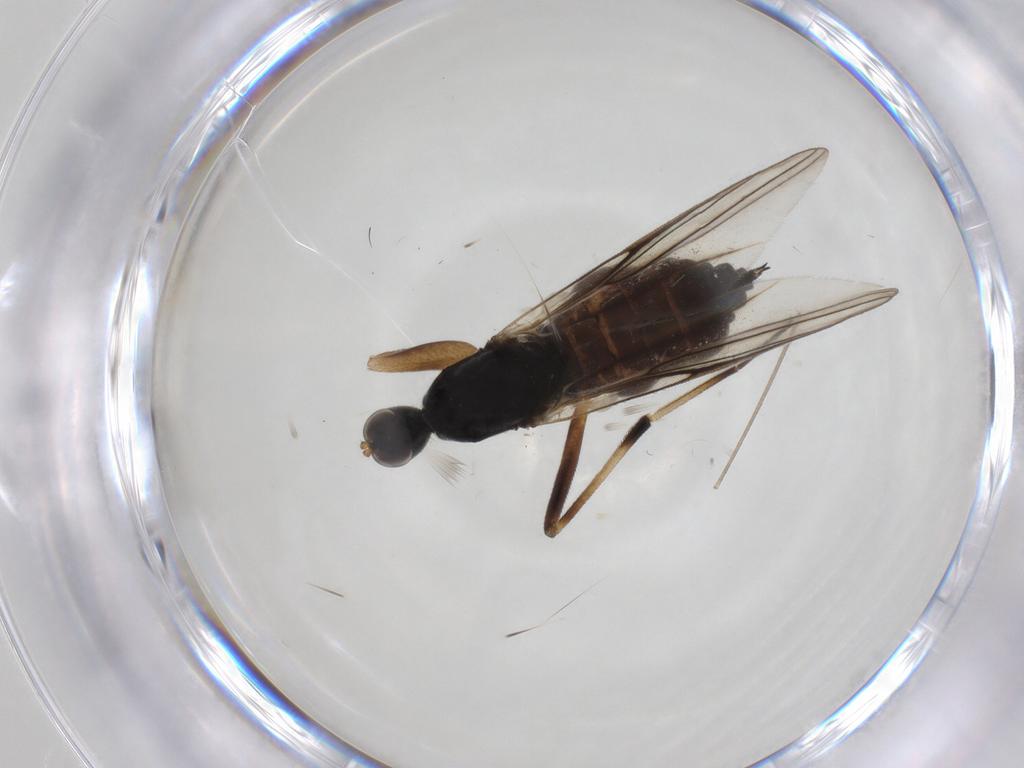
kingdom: Animalia
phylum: Arthropoda
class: Insecta
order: Diptera
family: Hybotidae
